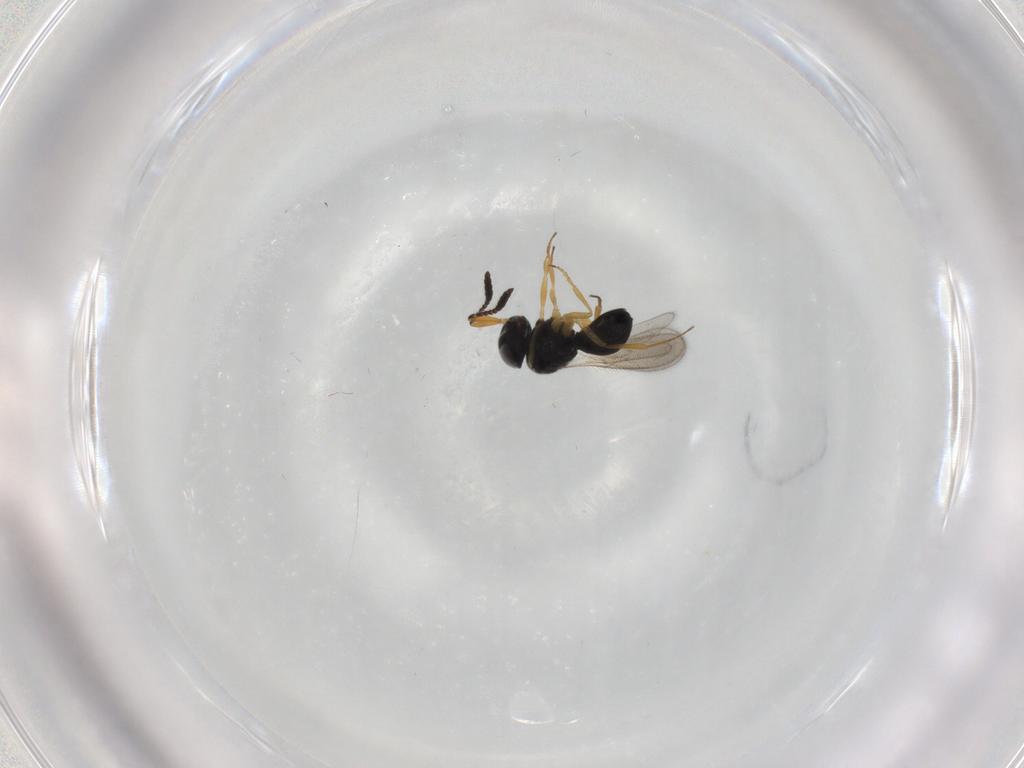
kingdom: Animalia
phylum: Arthropoda
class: Insecta
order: Hymenoptera
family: Scelionidae
